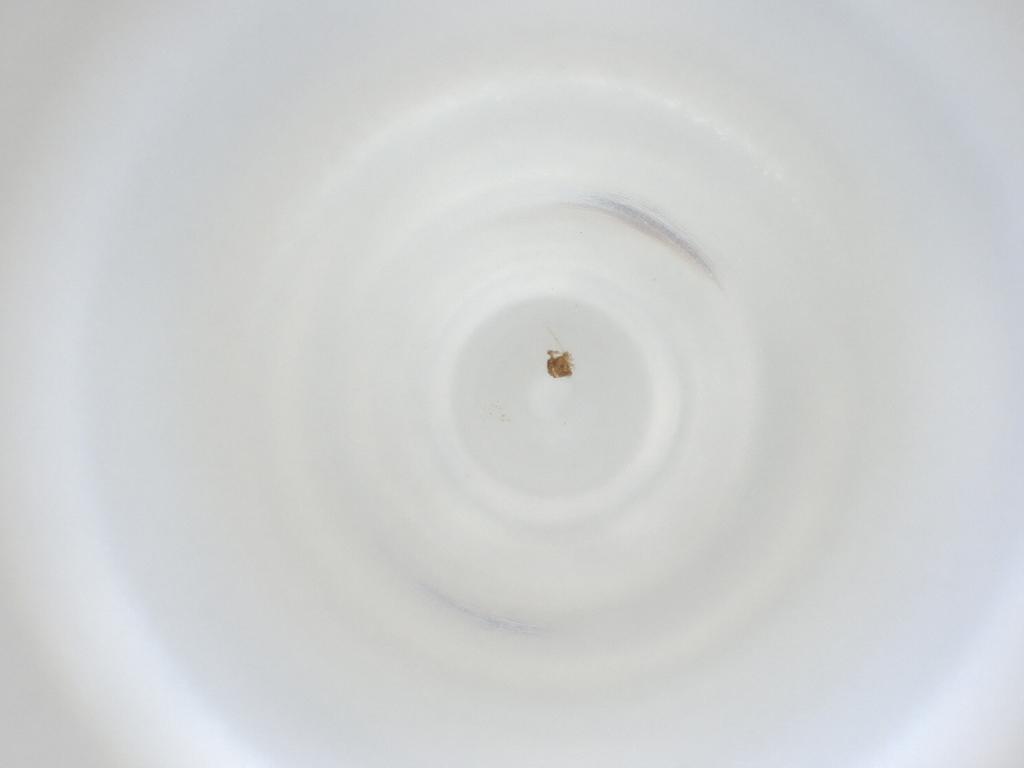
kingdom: Animalia
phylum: Arthropoda
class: Insecta
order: Diptera
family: Cecidomyiidae
